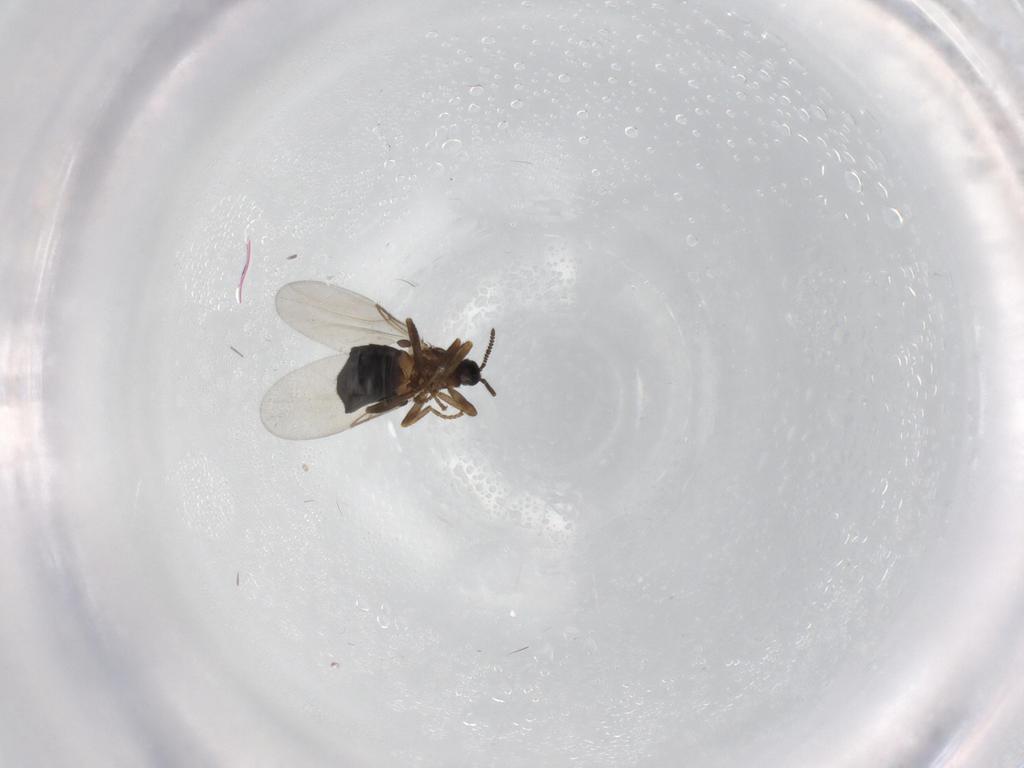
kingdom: Animalia
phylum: Arthropoda
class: Insecta
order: Diptera
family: Scatopsidae
